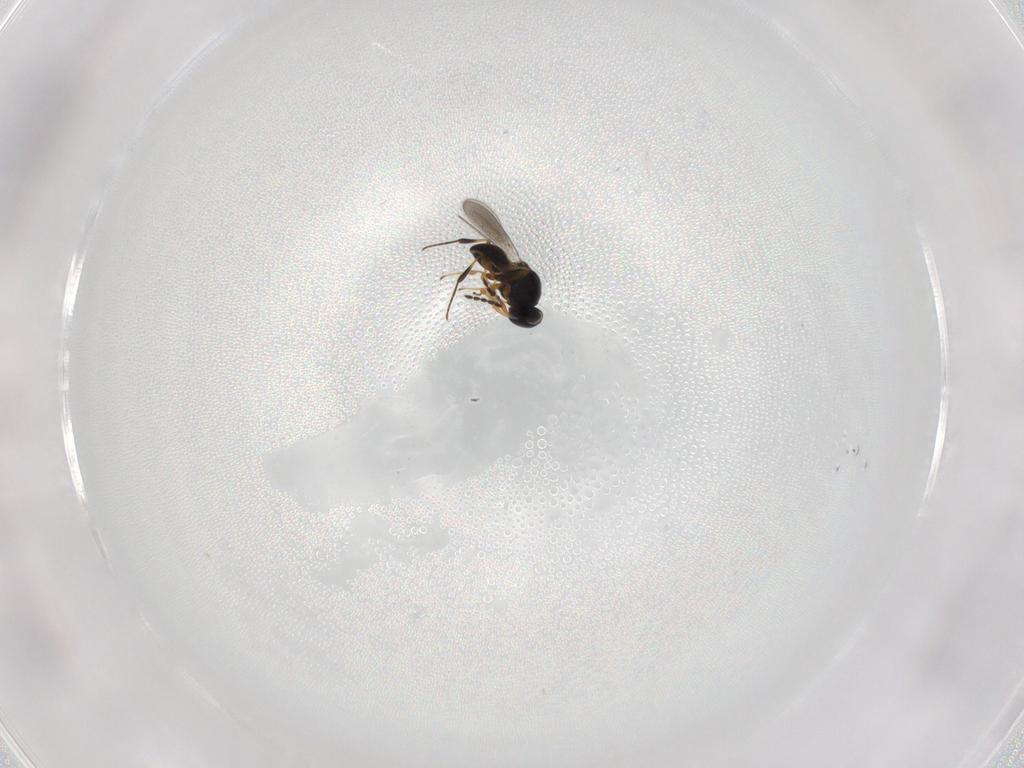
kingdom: Animalia
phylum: Arthropoda
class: Insecta
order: Hymenoptera
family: Platygastridae
